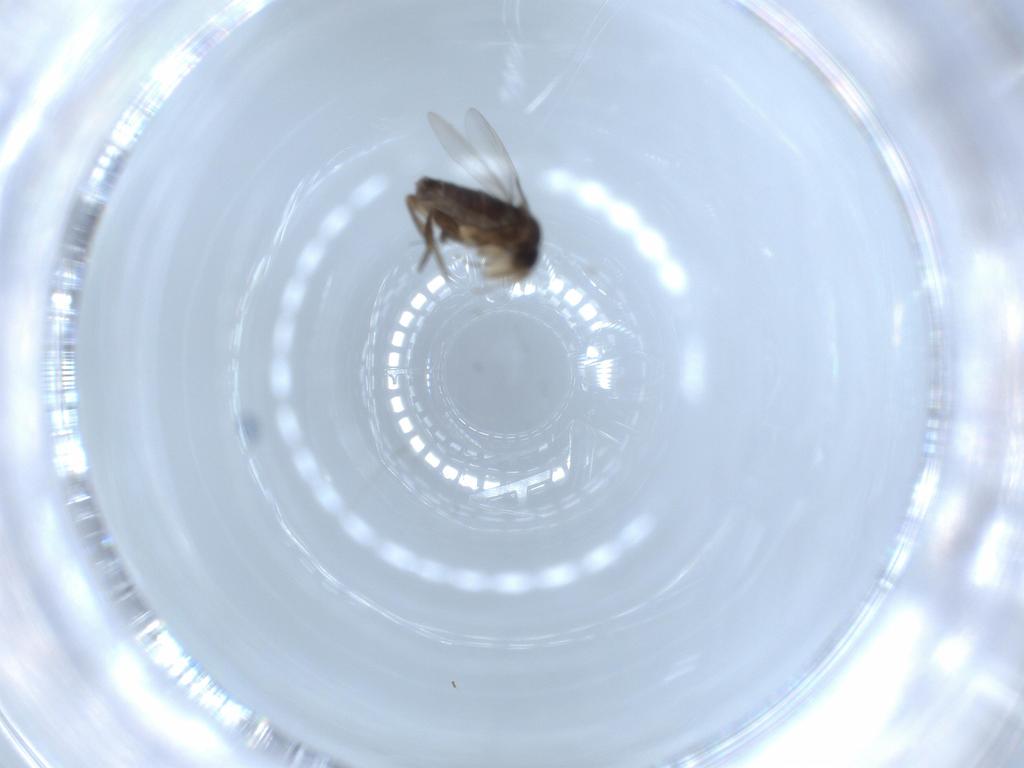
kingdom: Animalia
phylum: Arthropoda
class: Insecta
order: Diptera
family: Phoridae
